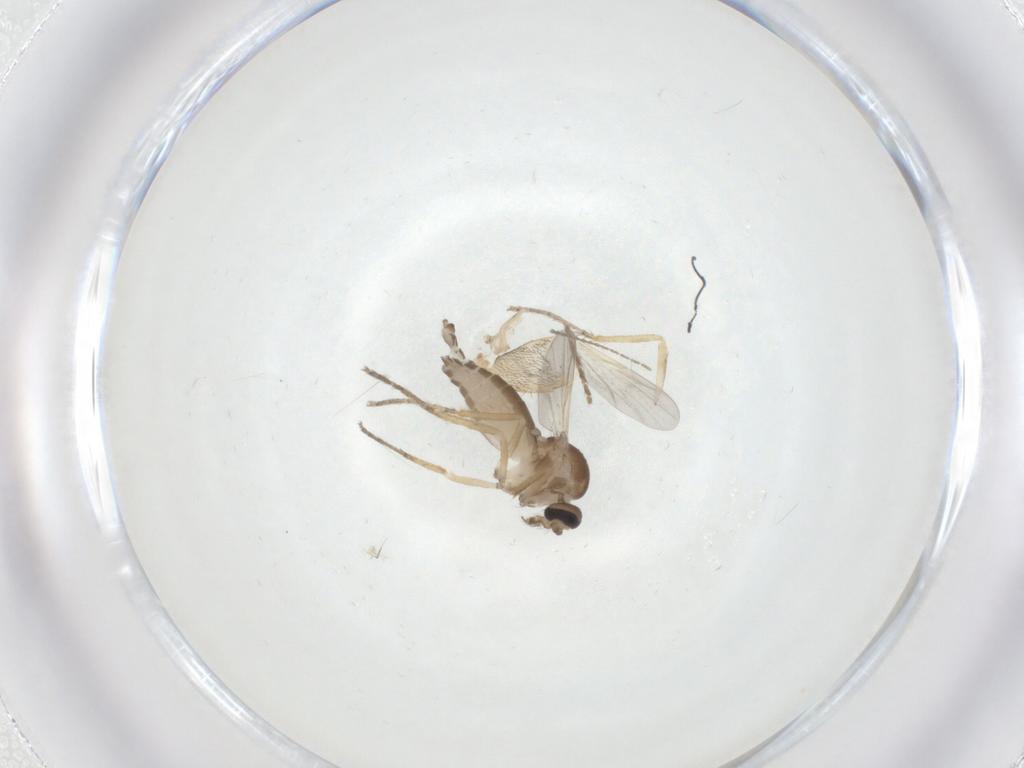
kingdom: Animalia
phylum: Arthropoda
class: Insecta
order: Diptera
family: Ceratopogonidae
